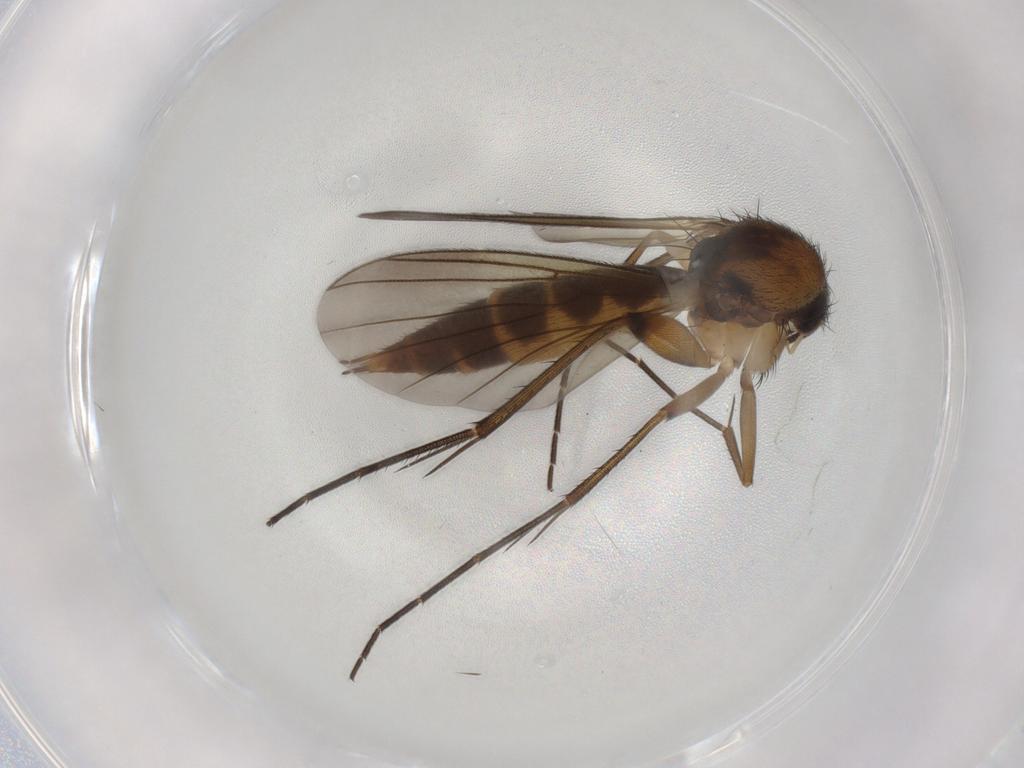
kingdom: Animalia
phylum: Arthropoda
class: Insecta
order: Diptera
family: Mycetophilidae
